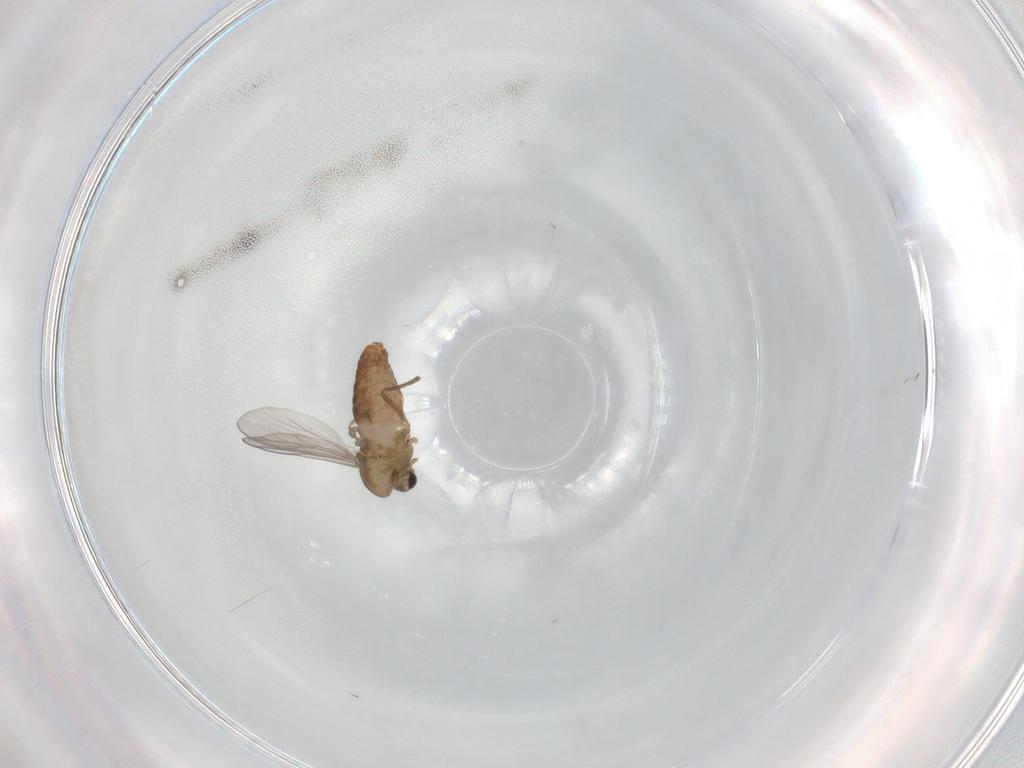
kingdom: Animalia
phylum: Arthropoda
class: Insecta
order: Diptera
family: Chironomidae
